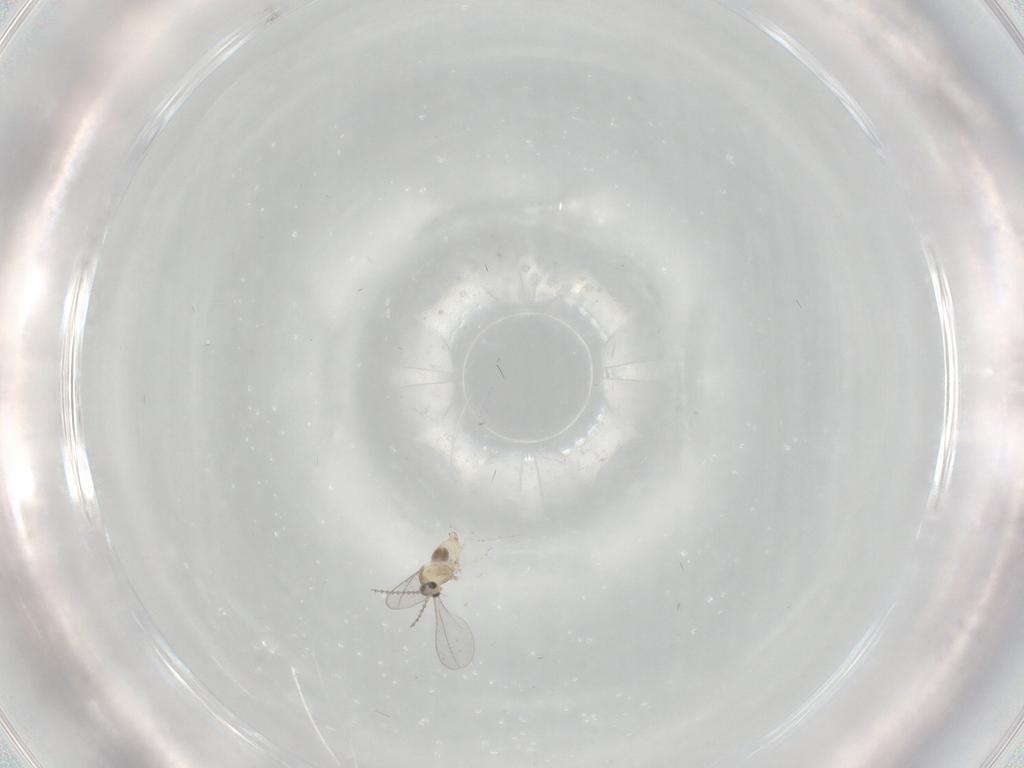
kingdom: Animalia
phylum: Arthropoda
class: Insecta
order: Diptera
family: Cecidomyiidae
